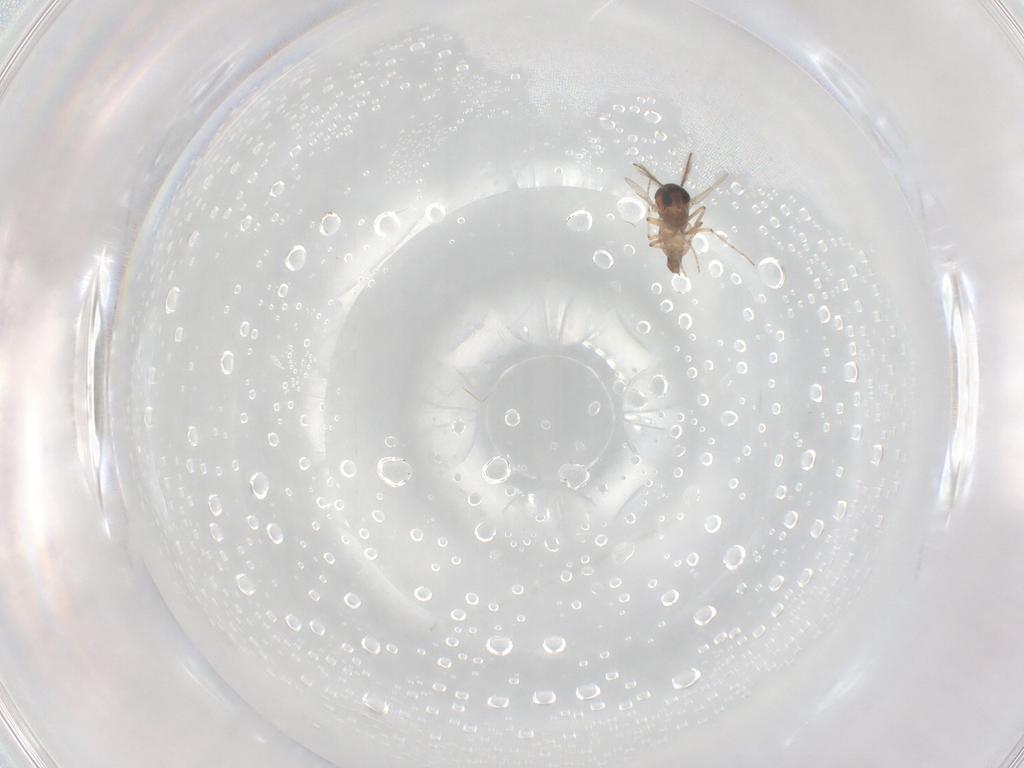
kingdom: Animalia
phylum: Arthropoda
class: Insecta
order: Diptera
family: Ceratopogonidae
